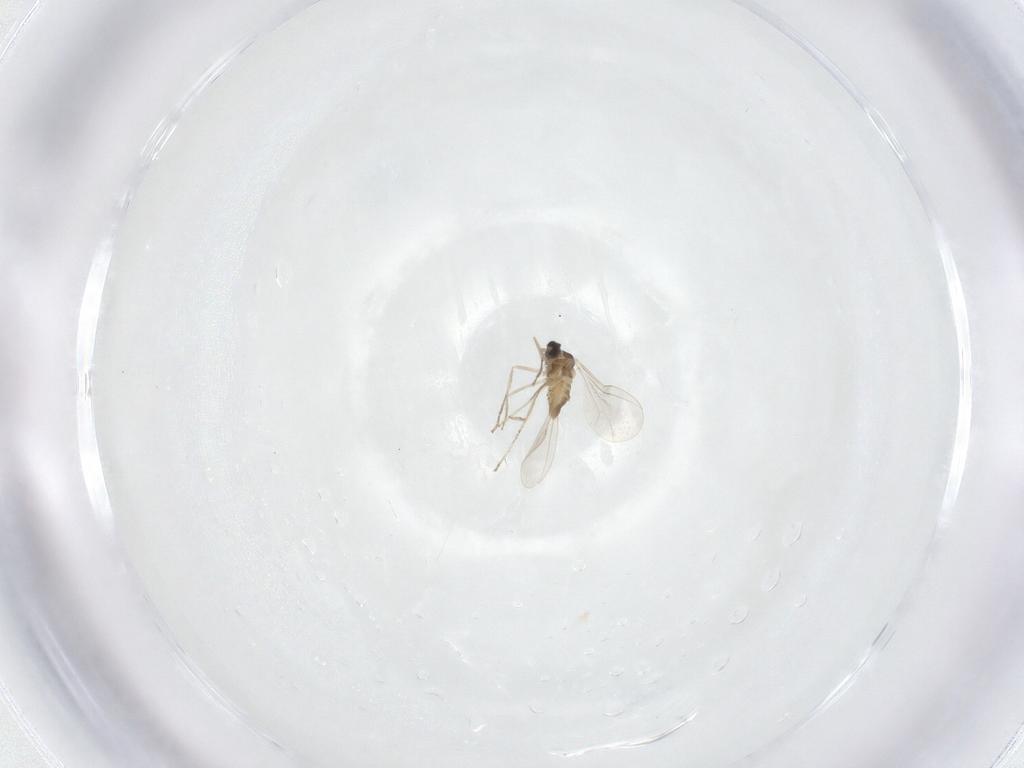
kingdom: Animalia
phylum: Arthropoda
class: Insecta
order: Diptera
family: Cecidomyiidae
